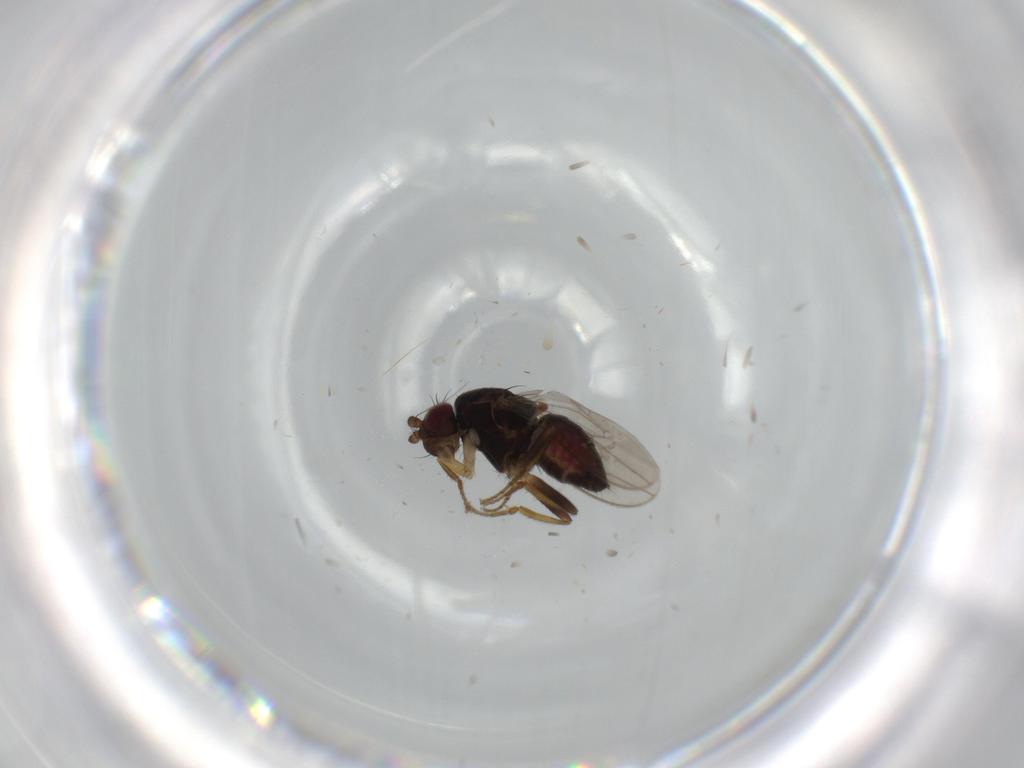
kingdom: Animalia
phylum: Arthropoda
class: Insecta
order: Diptera
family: Sphaeroceridae
